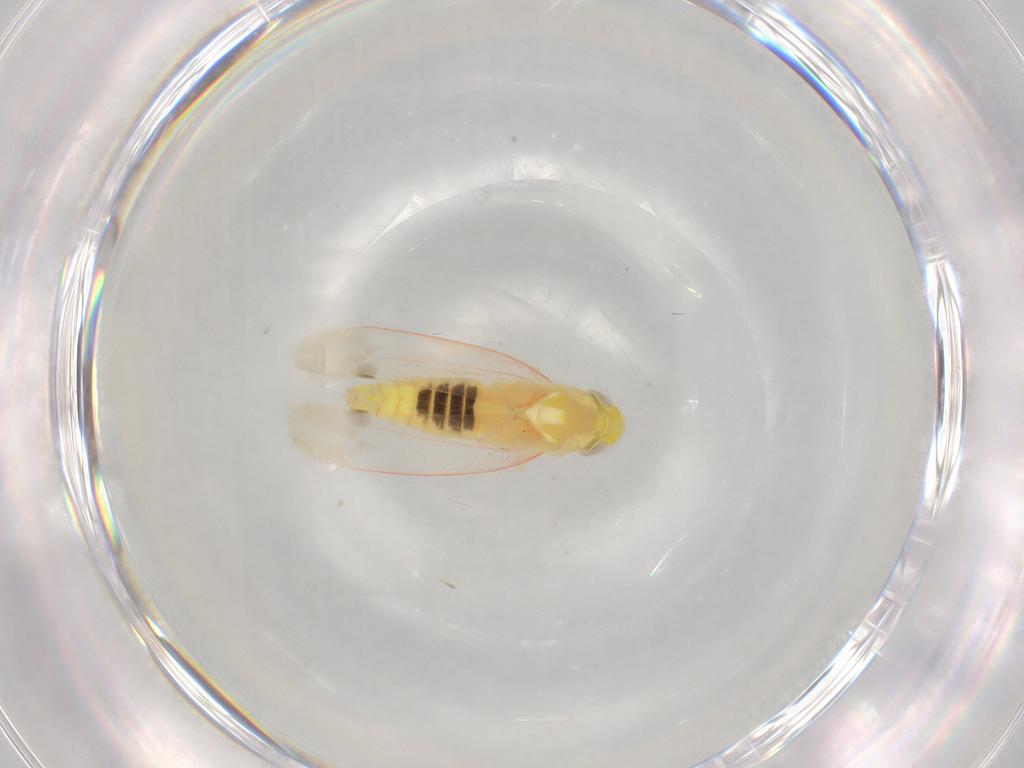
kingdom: Animalia
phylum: Arthropoda
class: Insecta
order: Hemiptera
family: Cicadellidae
